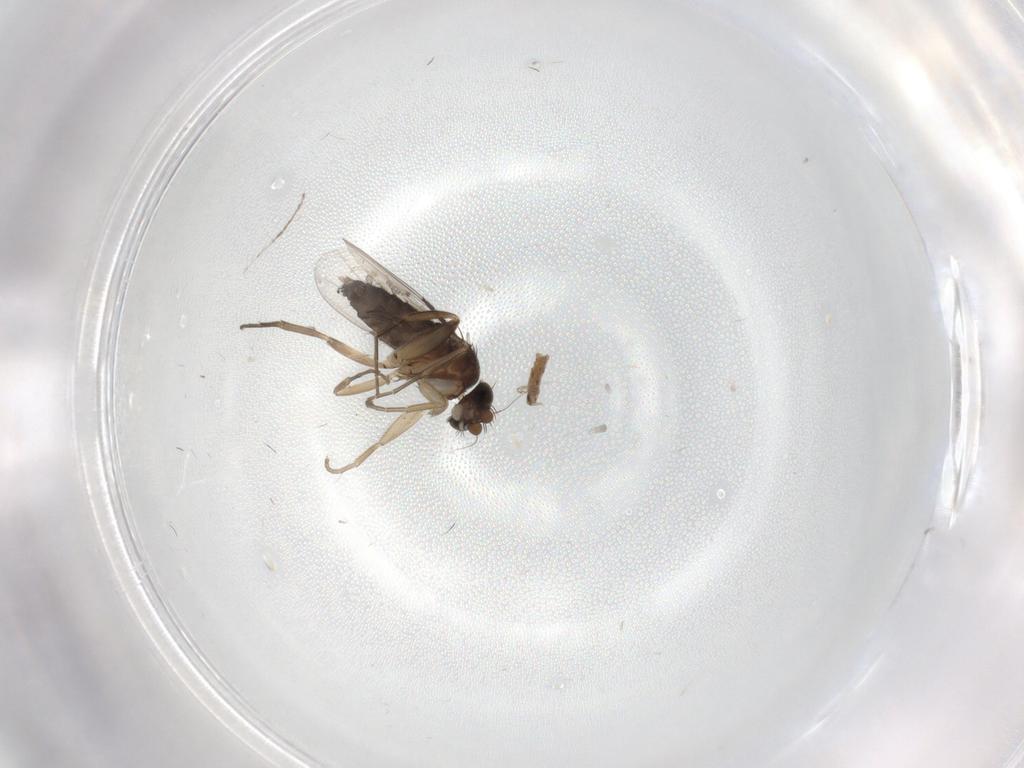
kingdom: Animalia
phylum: Arthropoda
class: Insecta
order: Diptera
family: Phoridae
